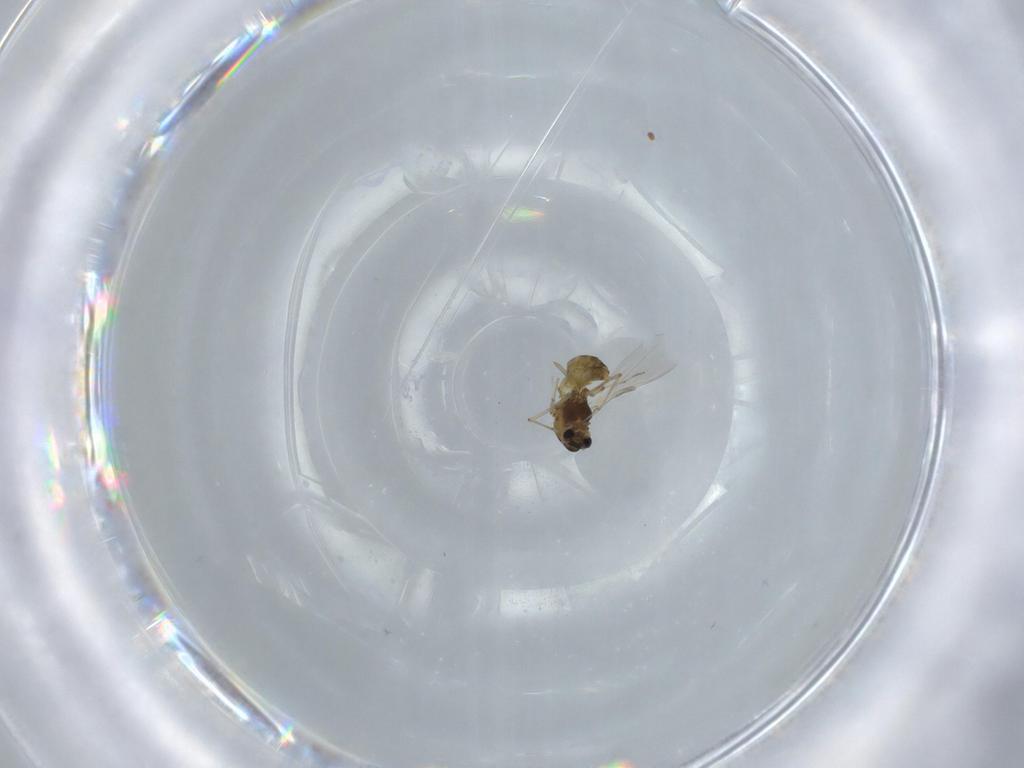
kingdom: Animalia
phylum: Arthropoda
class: Insecta
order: Diptera
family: Chironomidae
